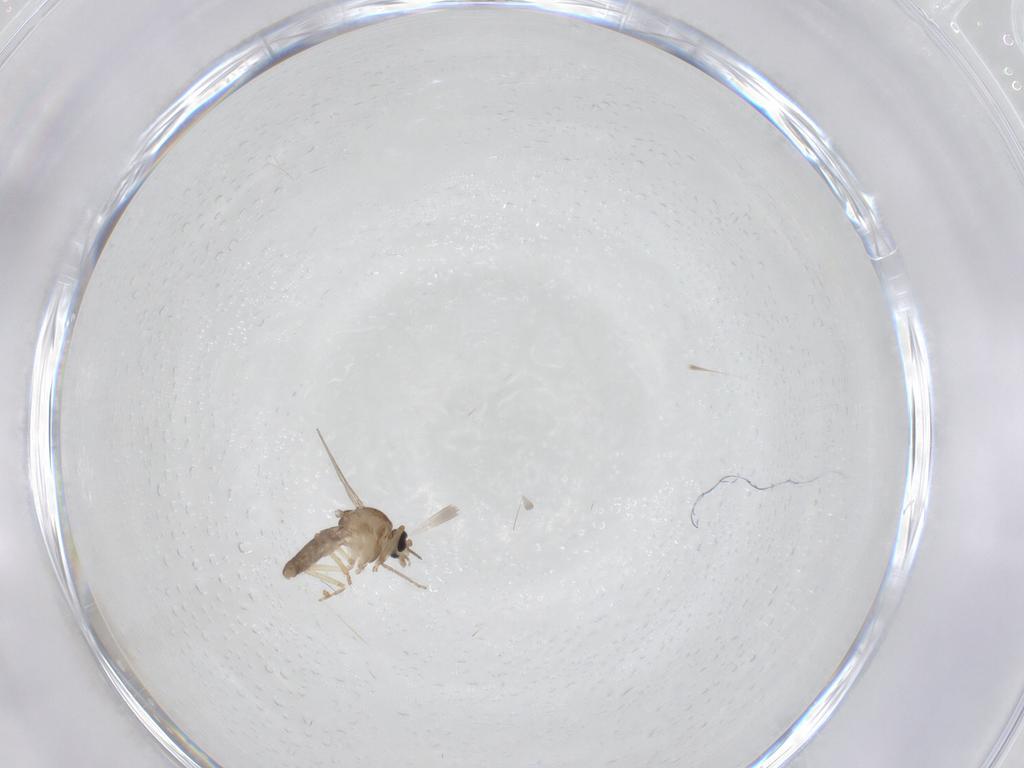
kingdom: Animalia
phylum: Arthropoda
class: Insecta
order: Diptera
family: Ceratopogonidae
